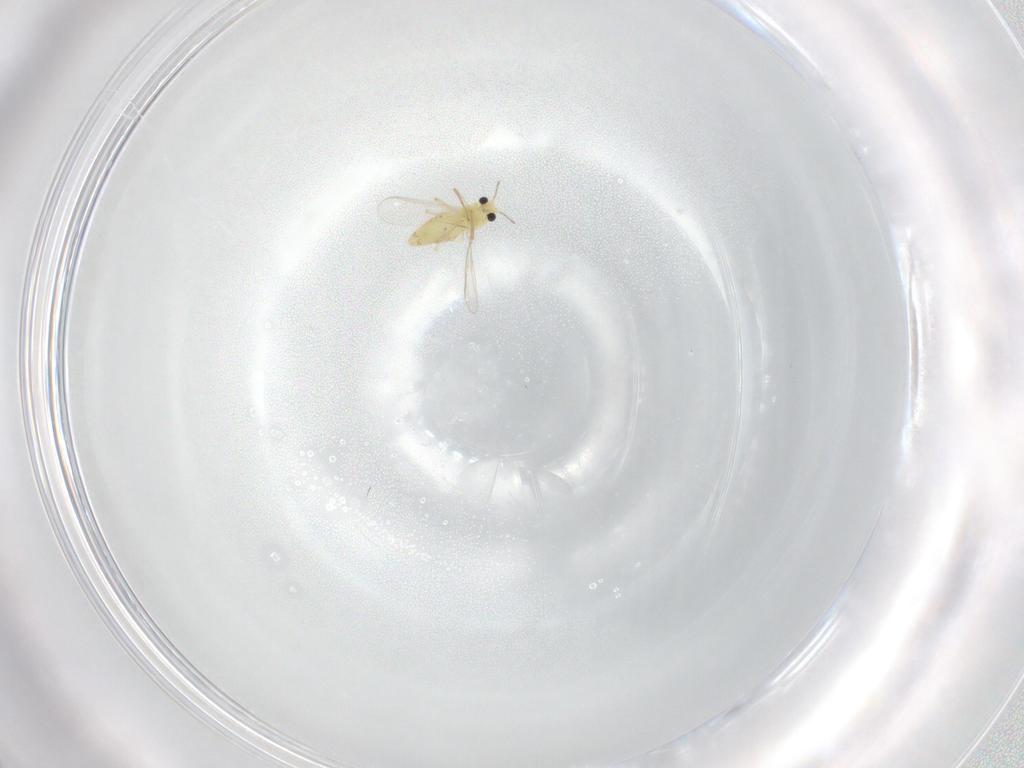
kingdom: Animalia
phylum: Arthropoda
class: Insecta
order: Diptera
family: Chironomidae
